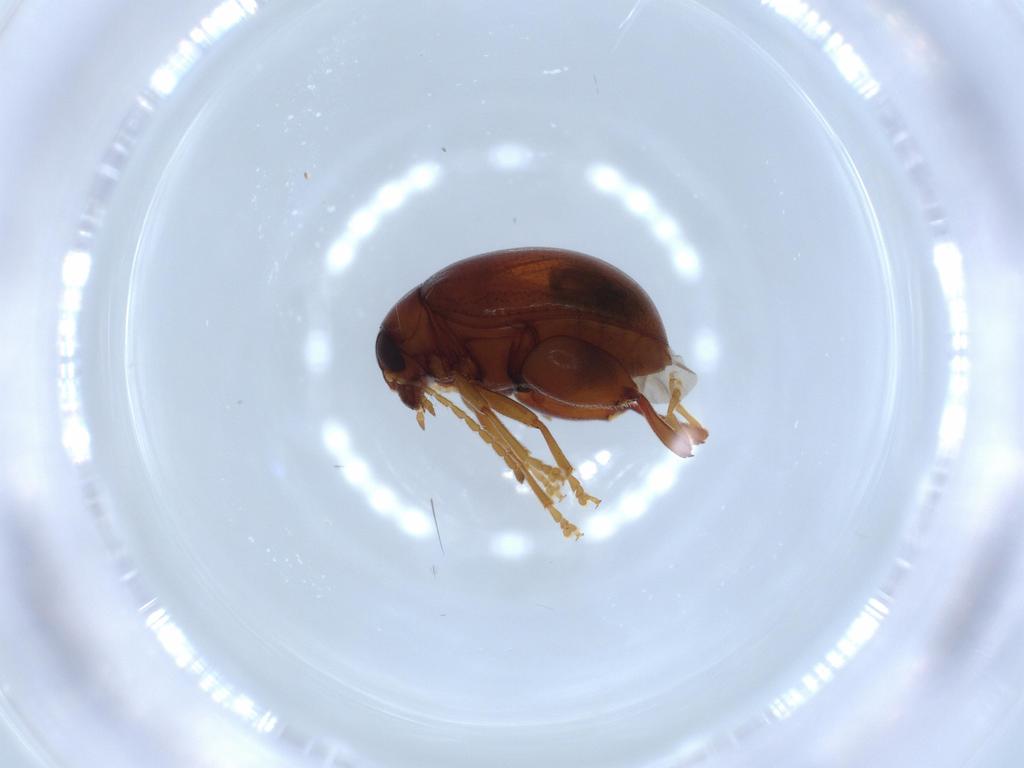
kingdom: Animalia
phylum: Arthropoda
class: Insecta
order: Coleoptera
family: Chrysomelidae
